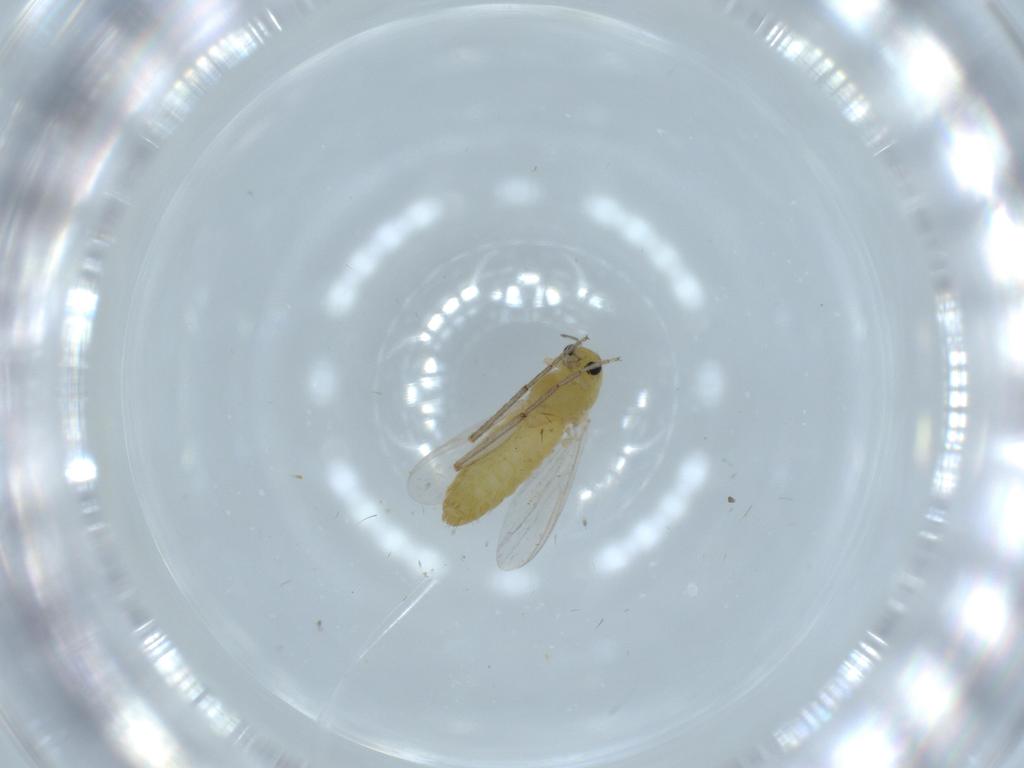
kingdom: Animalia
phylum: Arthropoda
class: Insecta
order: Diptera
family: Chironomidae
